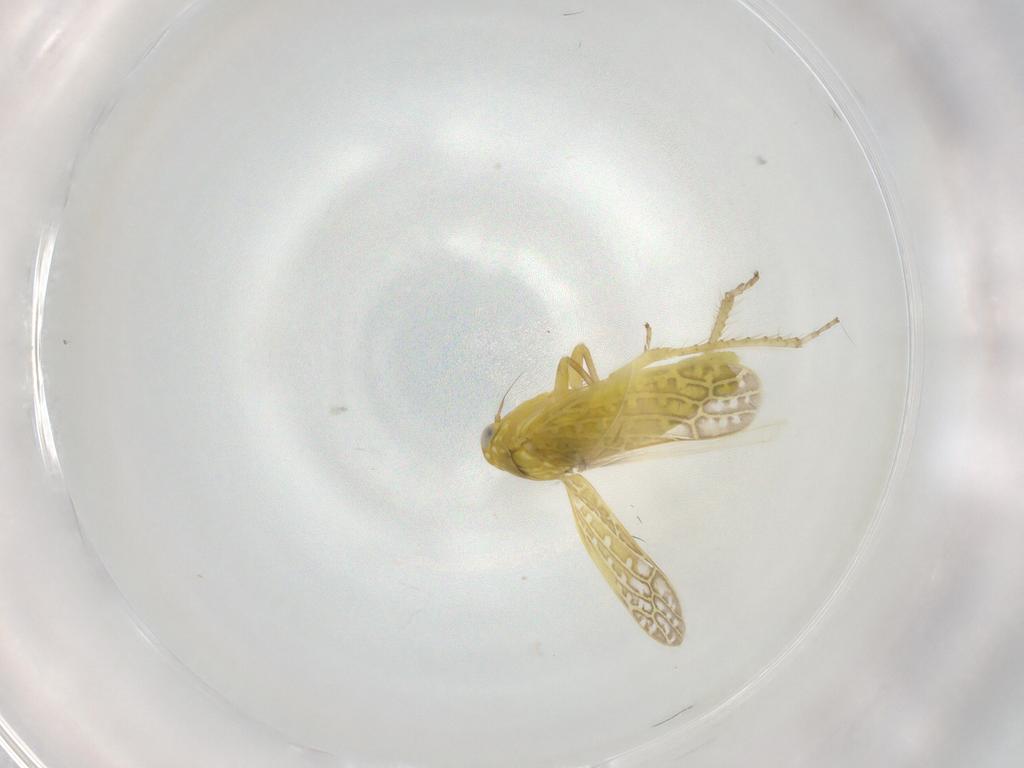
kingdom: Animalia
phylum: Arthropoda
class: Insecta
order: Hemiptera
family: Cicadellidae
